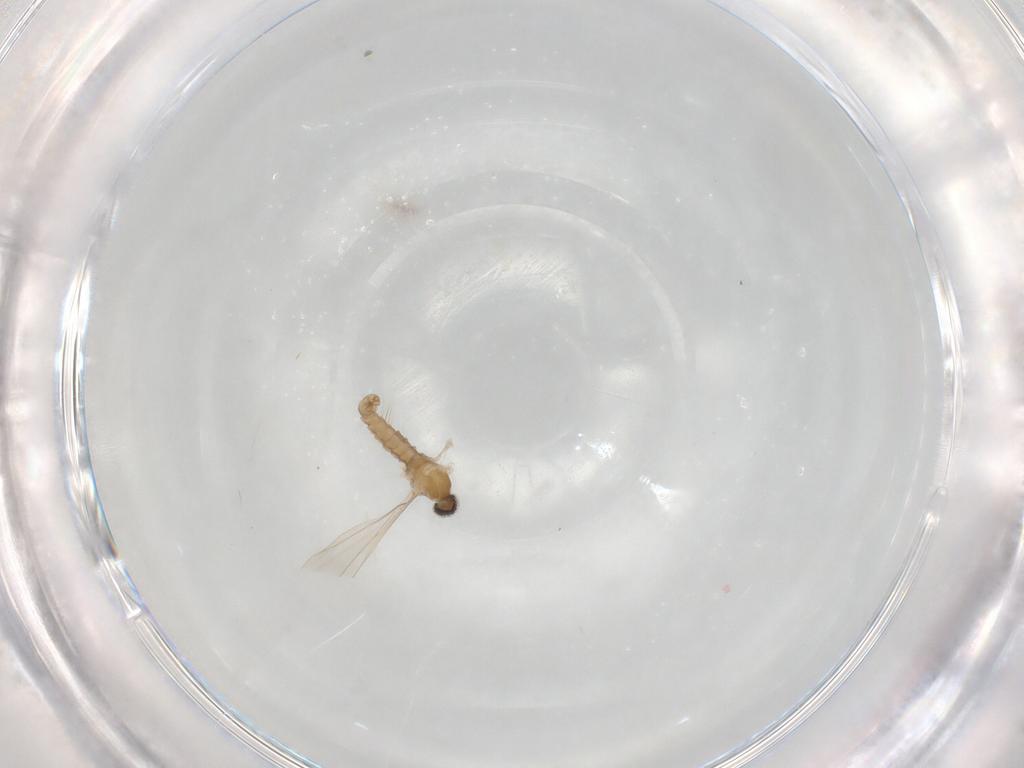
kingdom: Animalia
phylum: Arthropoda
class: Insecta
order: Diptera
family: Cecidomyiidae
